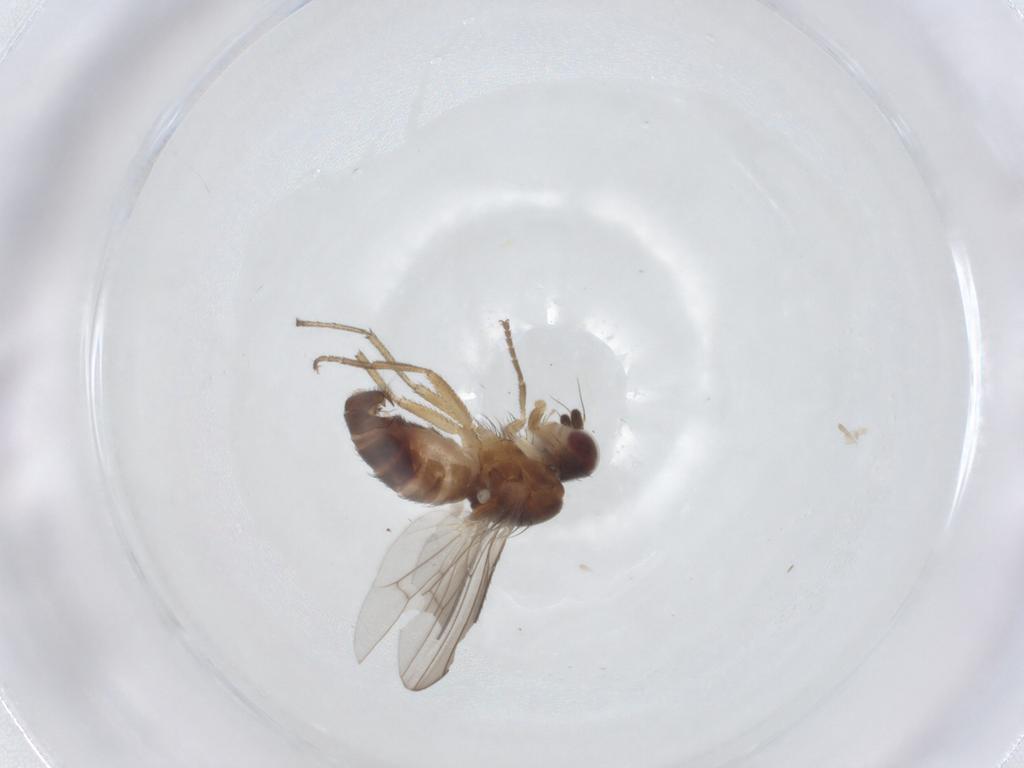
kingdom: Animalia
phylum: Arthropoda
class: Insecta
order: Diptera
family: Heleomyzidae
